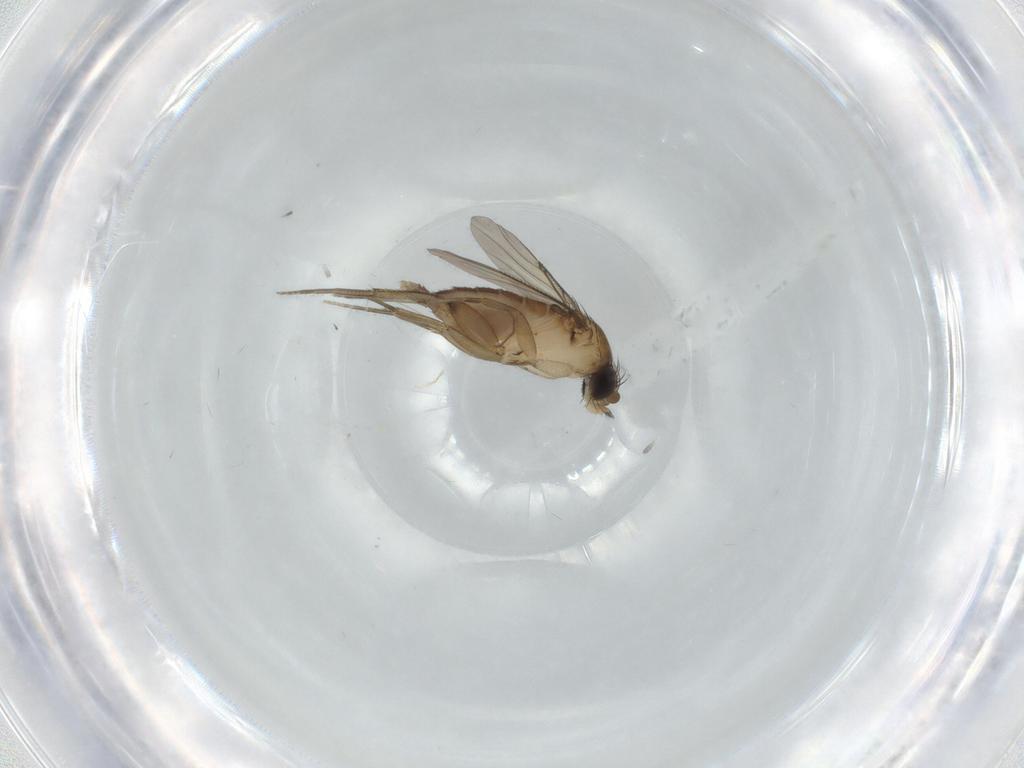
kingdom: Animalia
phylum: Arthropoda
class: Insecta
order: Diptera
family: Phoridae
